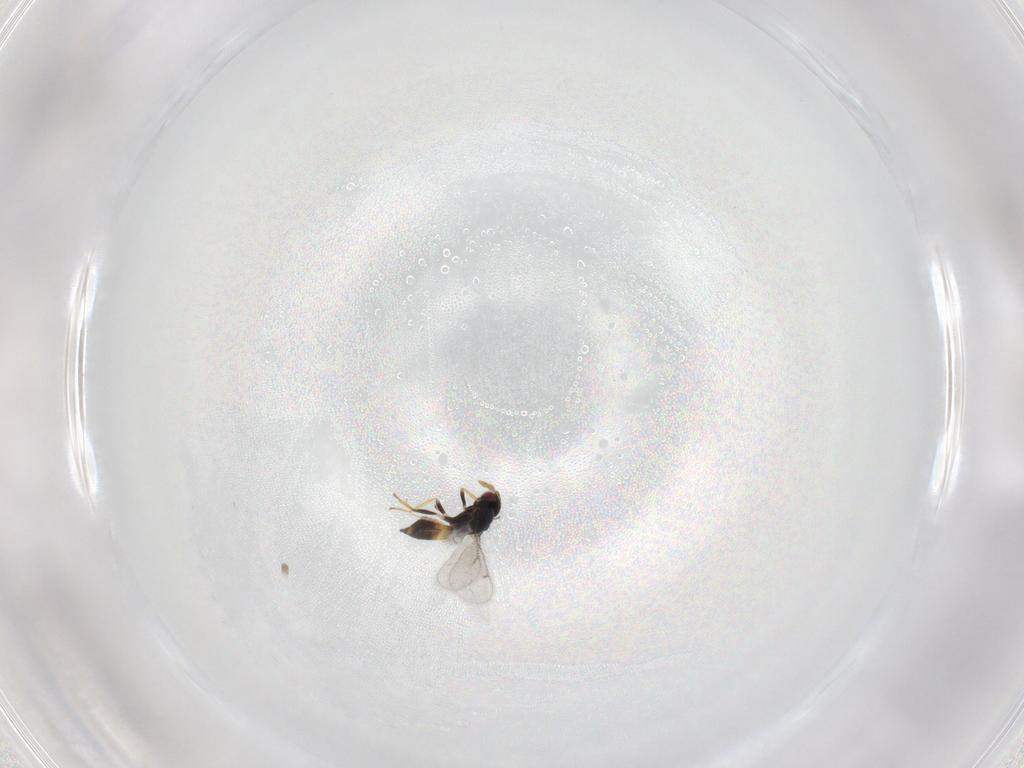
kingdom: Animalia
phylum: Arthropoda
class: Insecta
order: Hymenoptera
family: Eulophidae
